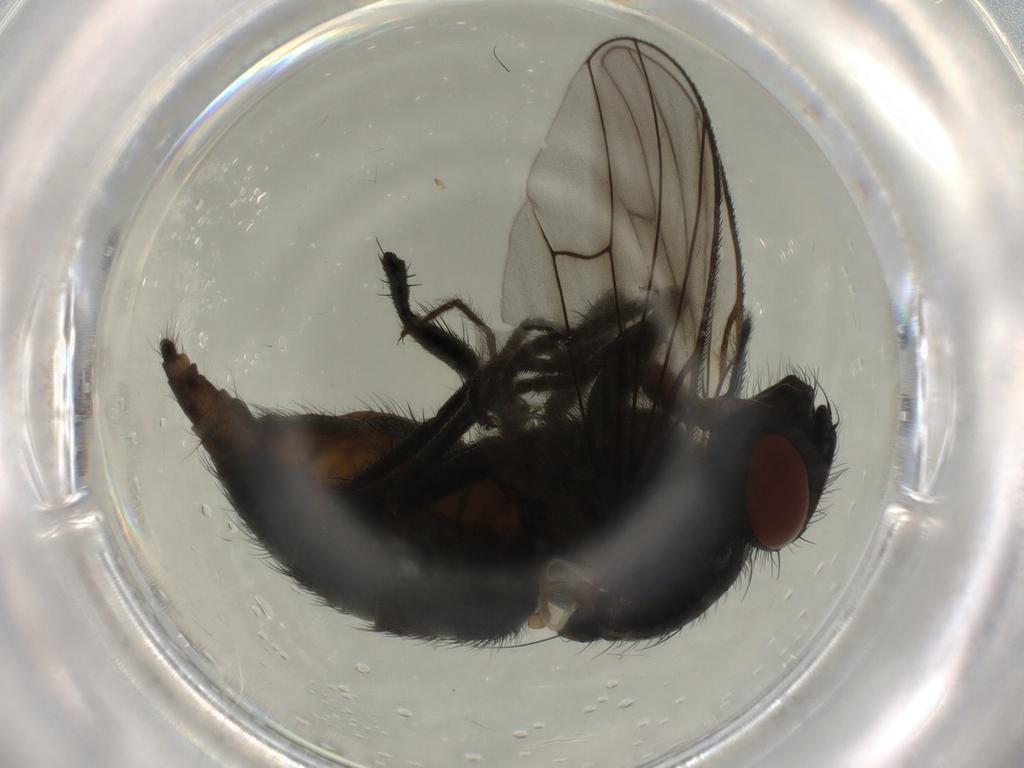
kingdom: Animalia
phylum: Arthropoda
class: Insecta
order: Diptera
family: Muscidae
